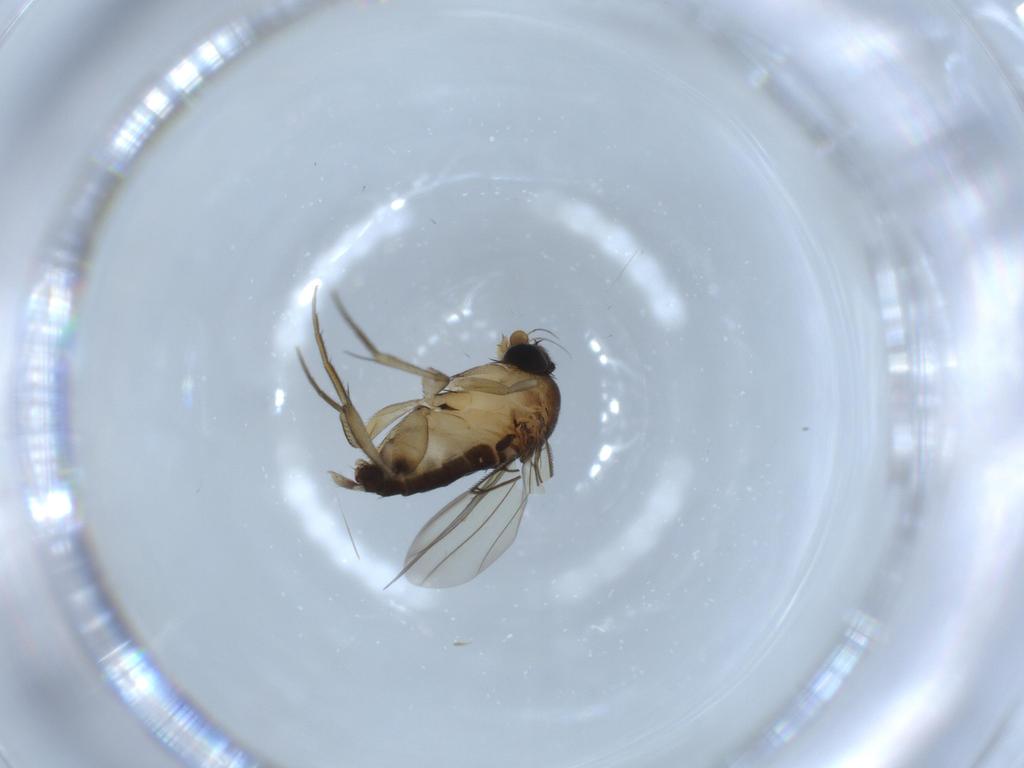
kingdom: Animalia
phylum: Arthropoda
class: Insecta
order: Diptera
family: Phoridae
